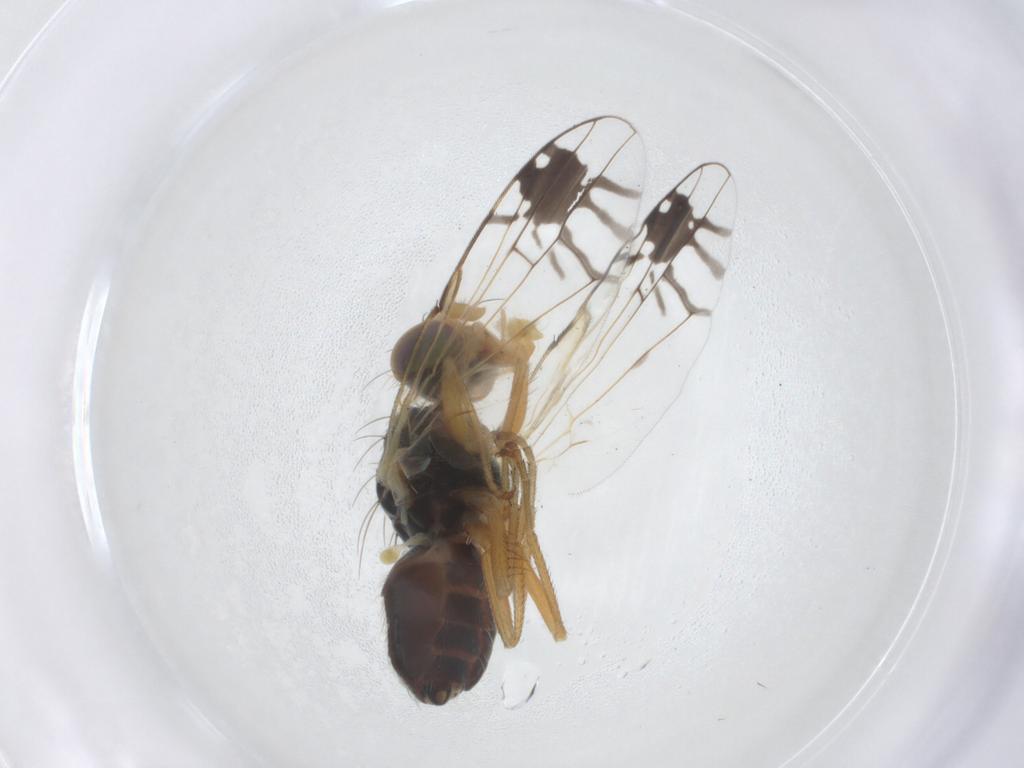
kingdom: Animalia
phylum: Arthropoda
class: Insecta
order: Diptera
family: Tephritidae
